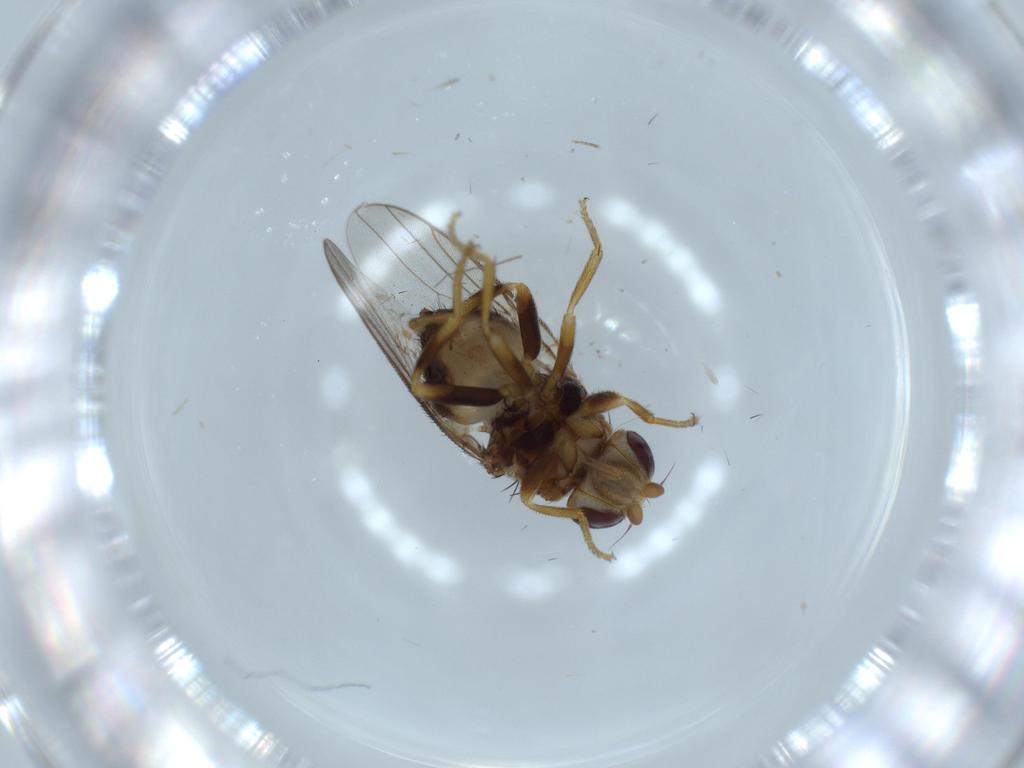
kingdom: Animalia
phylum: Arthropoda
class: Insecta
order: Diptera
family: Chloropidae
